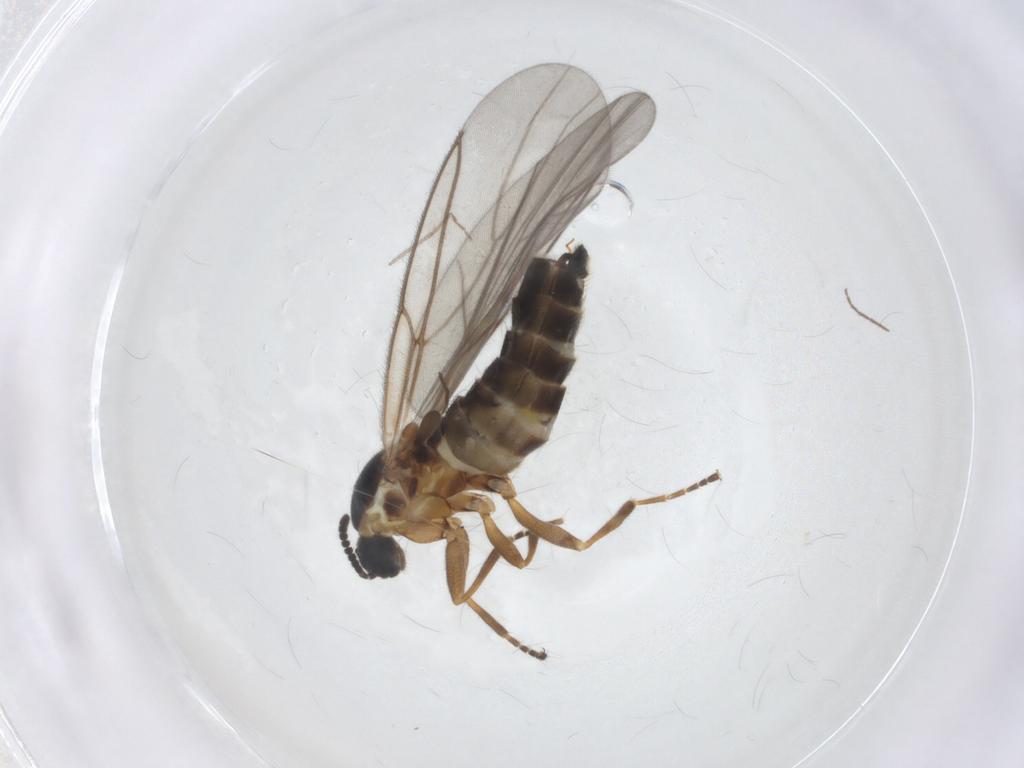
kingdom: Animalia
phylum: Arthropoda
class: Insecta
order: Diptera
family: Scatopsidae
